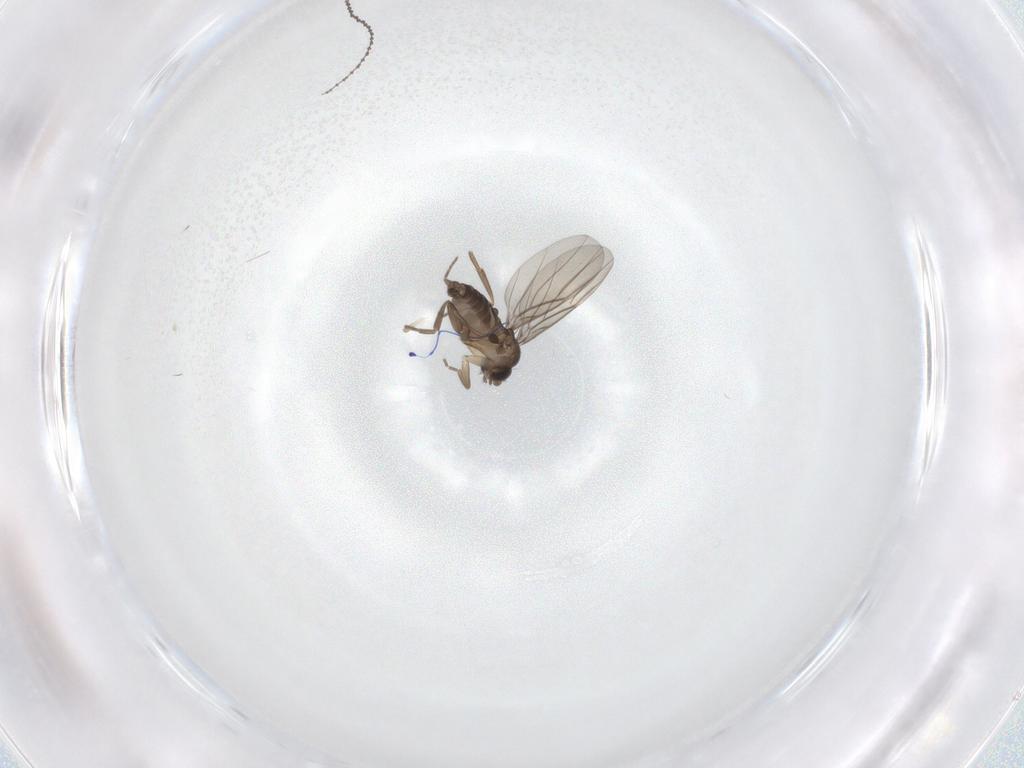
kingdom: Animalia
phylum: Arthropoda
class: Insecta
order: Diptera
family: Phoridae
